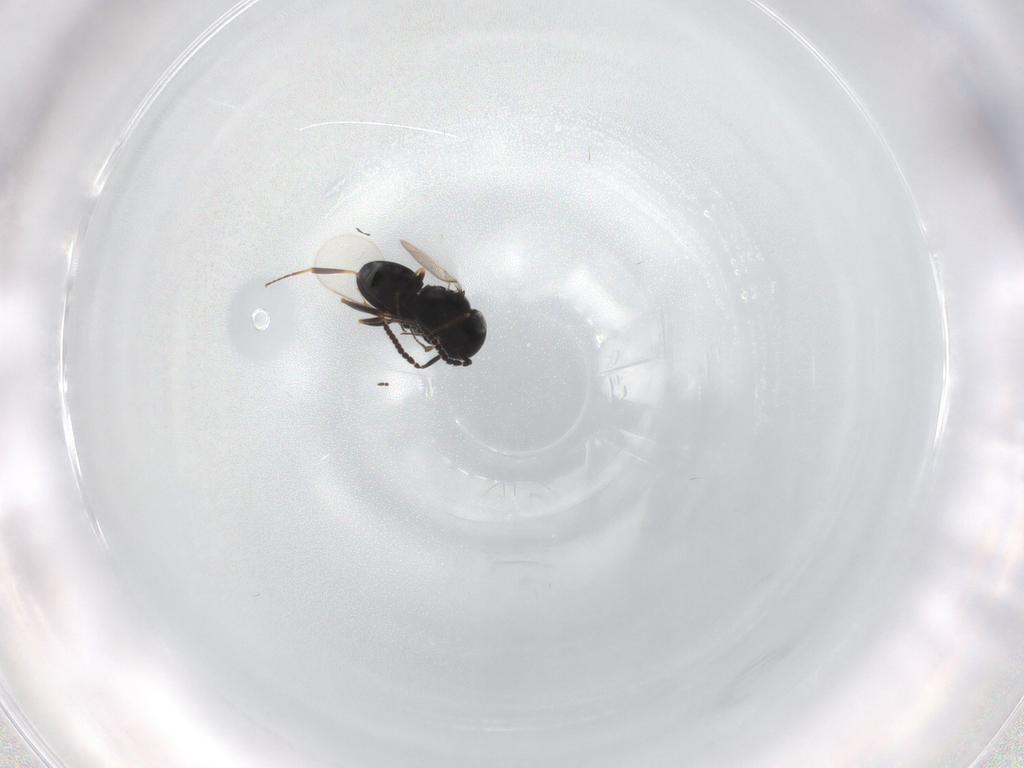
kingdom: Animalia
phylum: Arthropoda
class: Insecta
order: Hymenoptera
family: Scelionidae
